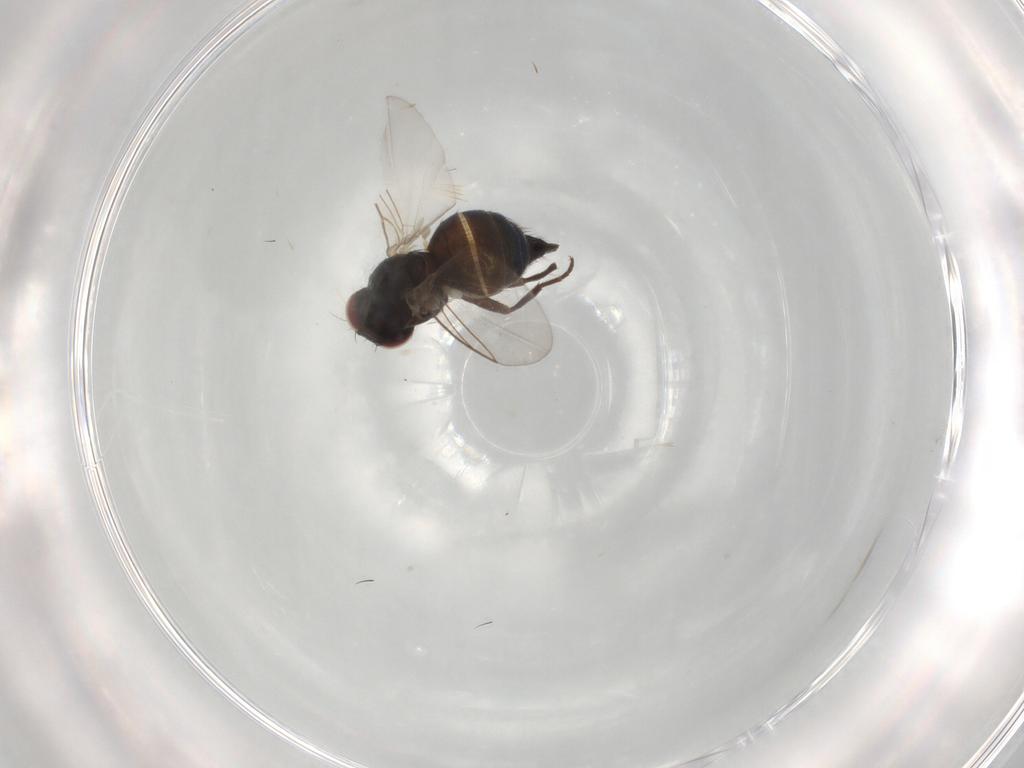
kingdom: Animalia
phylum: Arthropoda
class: Insecta
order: Diptera
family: Agromyzidae
